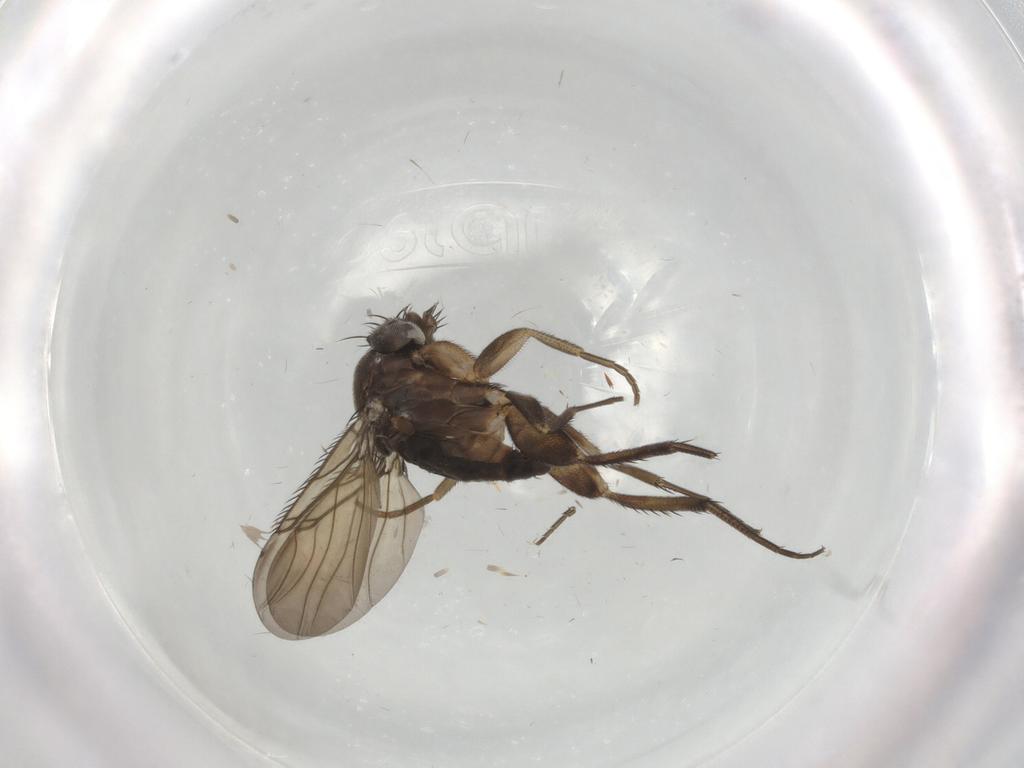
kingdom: Animalia
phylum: Arthropoda
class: Insecta
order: Diptera
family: Phoridae
